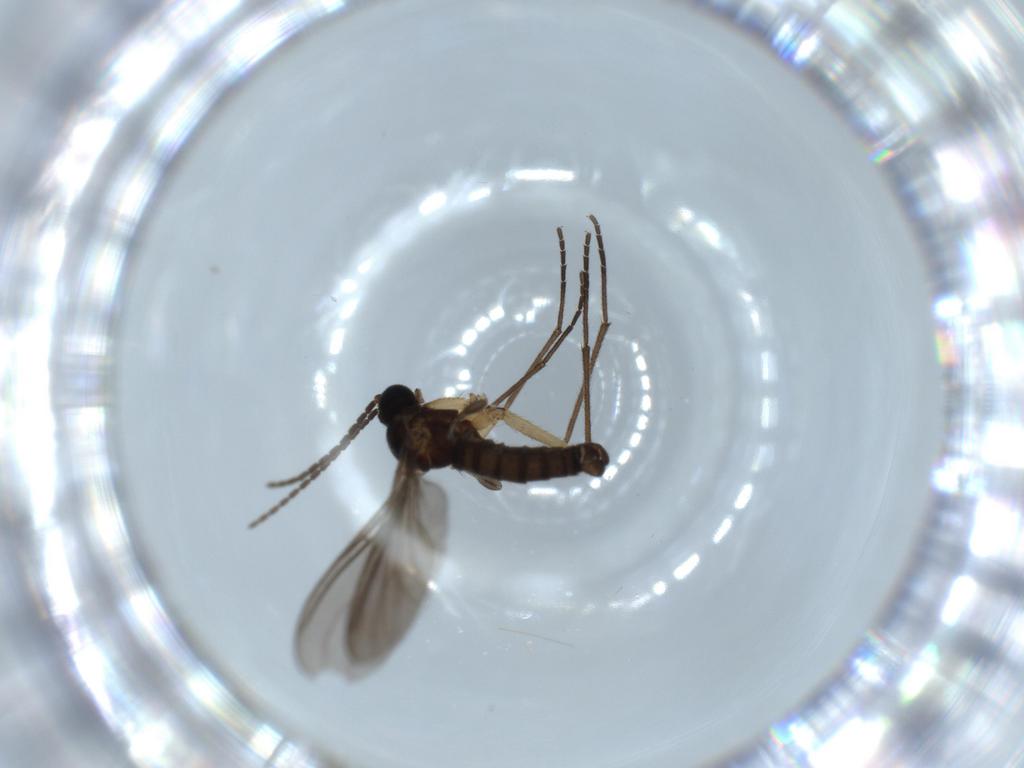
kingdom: Animalia
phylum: Arthropoda
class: Insecta
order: Diptera
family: Sciaridae
